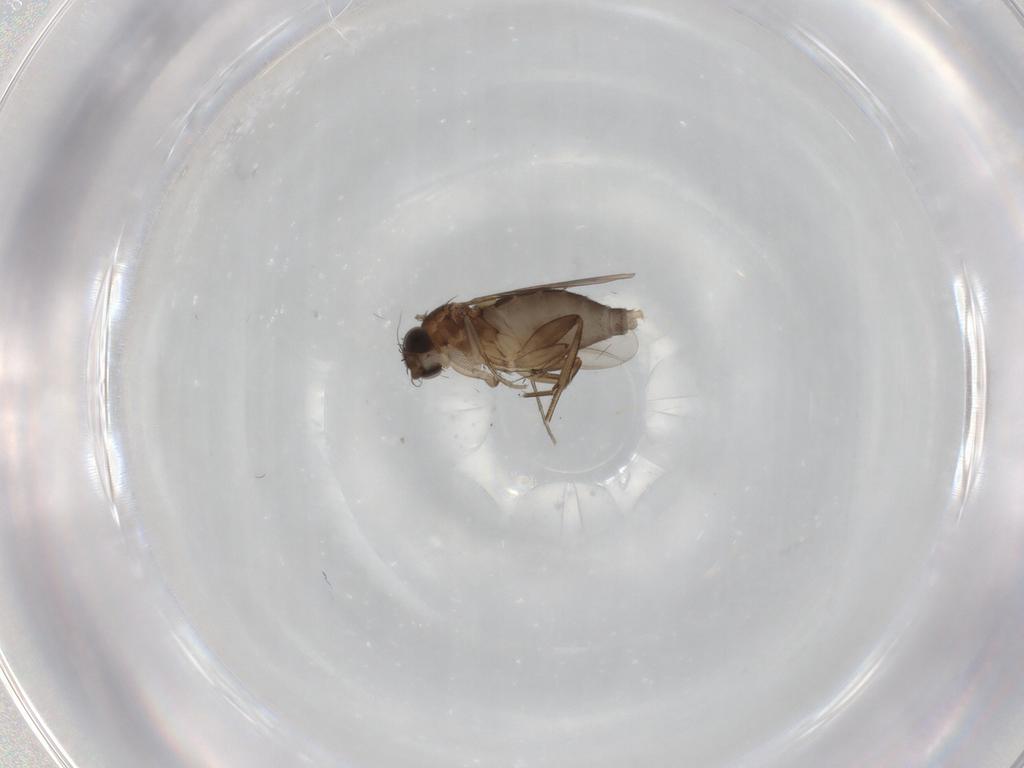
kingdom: Animalia
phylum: Arthropoda
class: Insecta
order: Diptera
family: Phoridae
